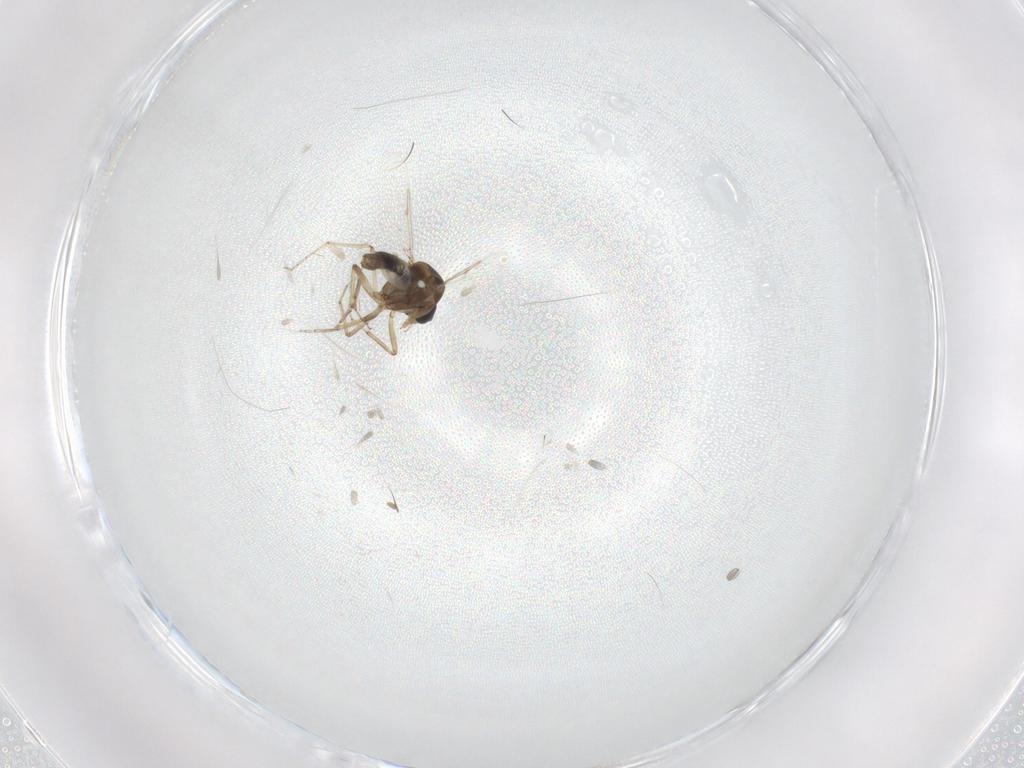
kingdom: Animalia
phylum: Arthropoda
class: Insecta
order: Diptera
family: Ceratopogonidae
